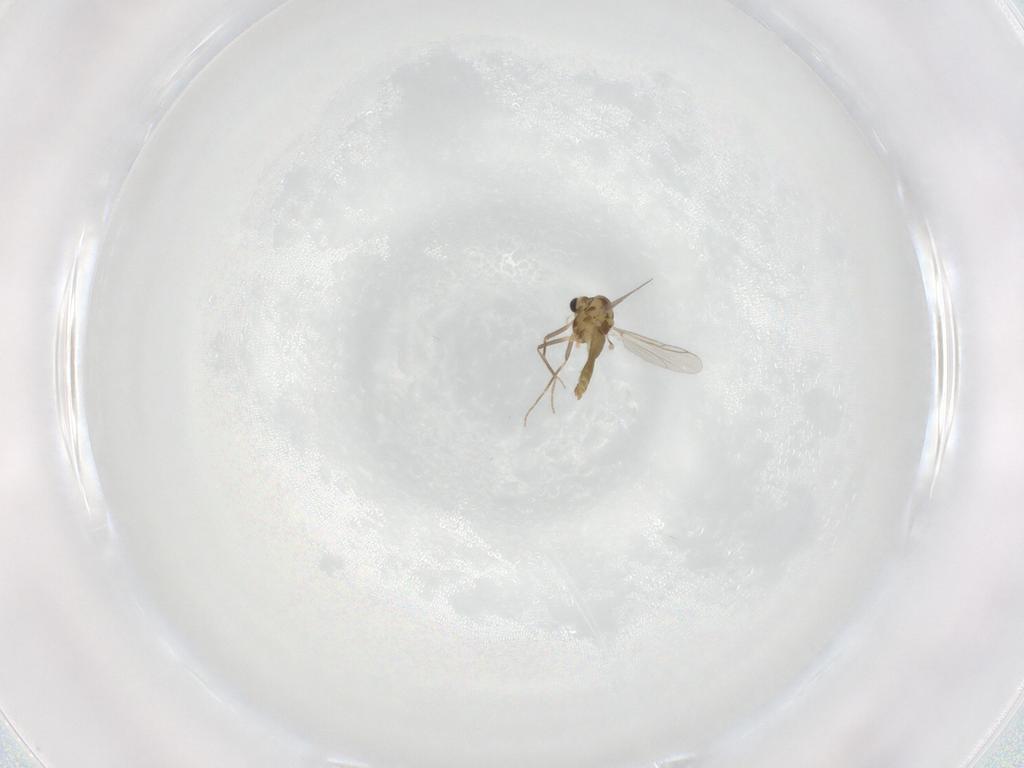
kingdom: Animalia
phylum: Arthropoda
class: Insecta
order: Diptera
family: Chironomidae
